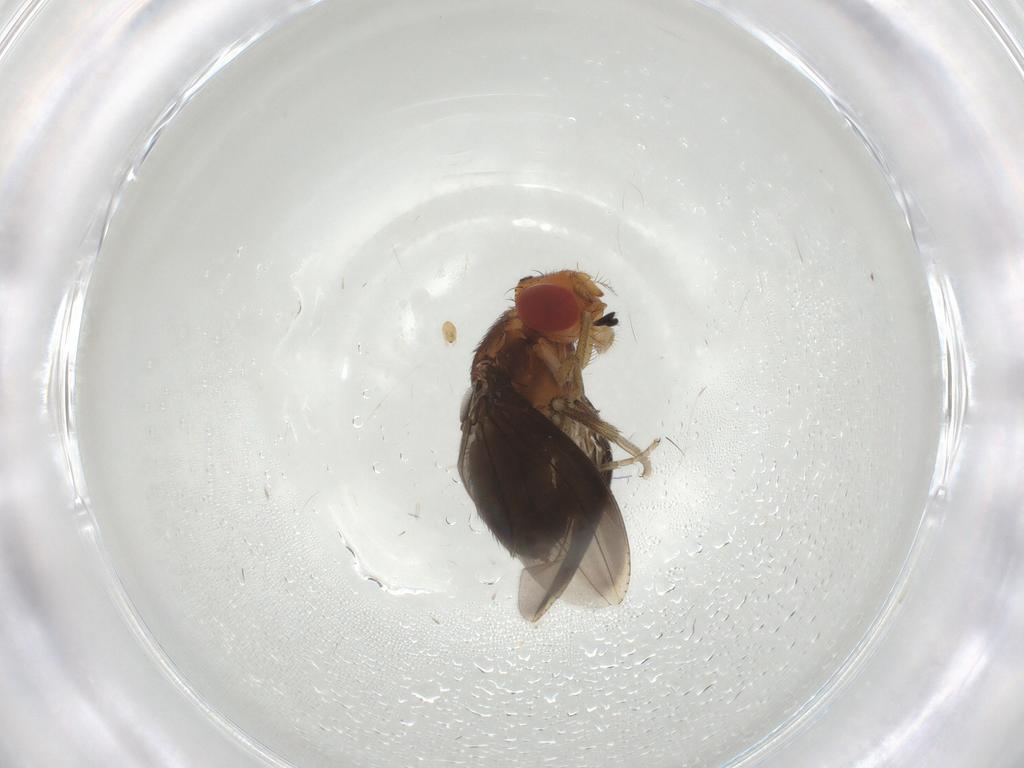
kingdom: Animalia
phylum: Arthropoda
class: Insecta
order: Diptera
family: Drosophilidae
